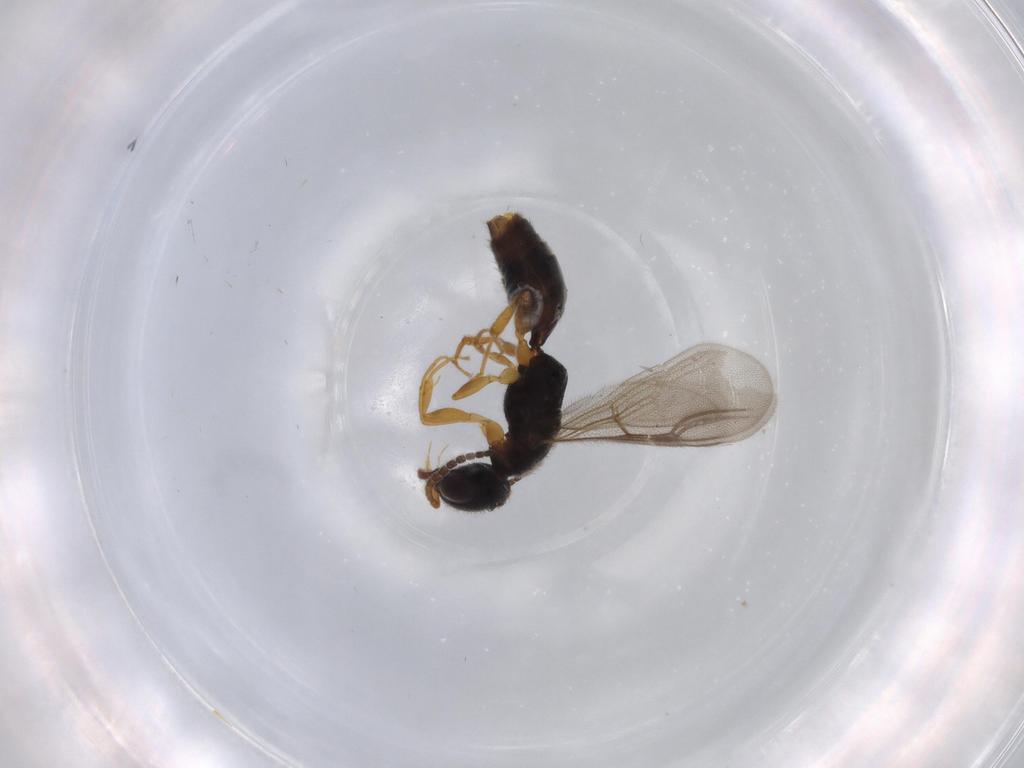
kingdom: Animalia
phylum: Arthropoda
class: Insecta
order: Hymenoptera
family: Bethylidae
